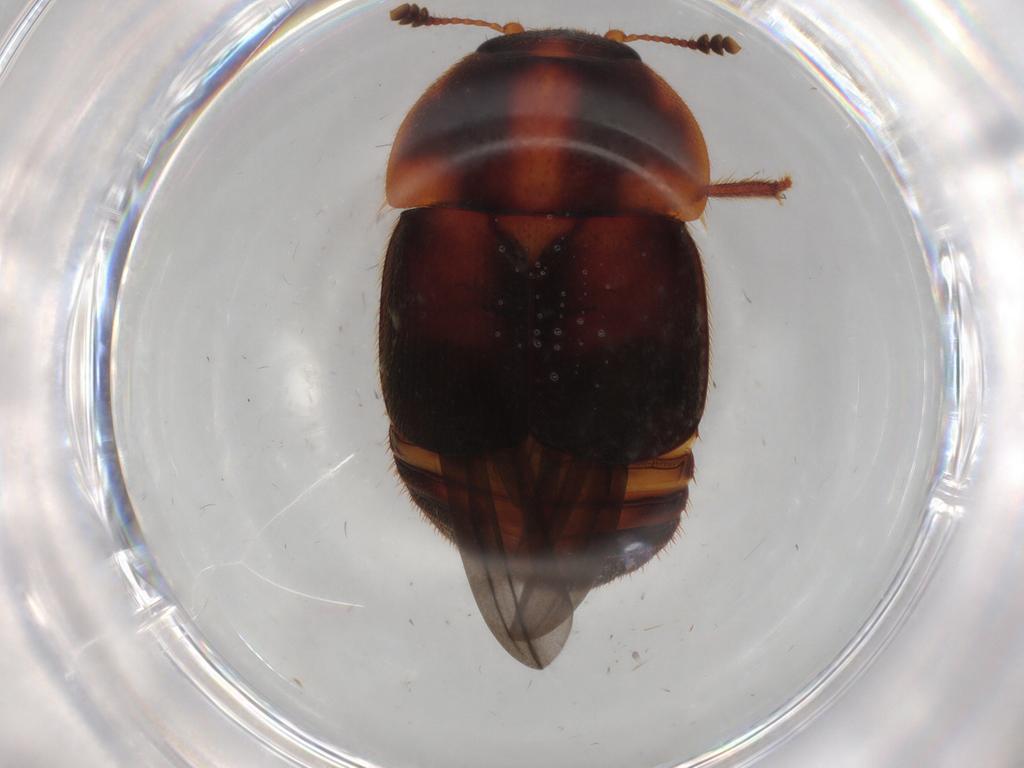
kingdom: Animalia
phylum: Arthropoda
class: Insecta
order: Coleoptera
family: Nitidulidae
